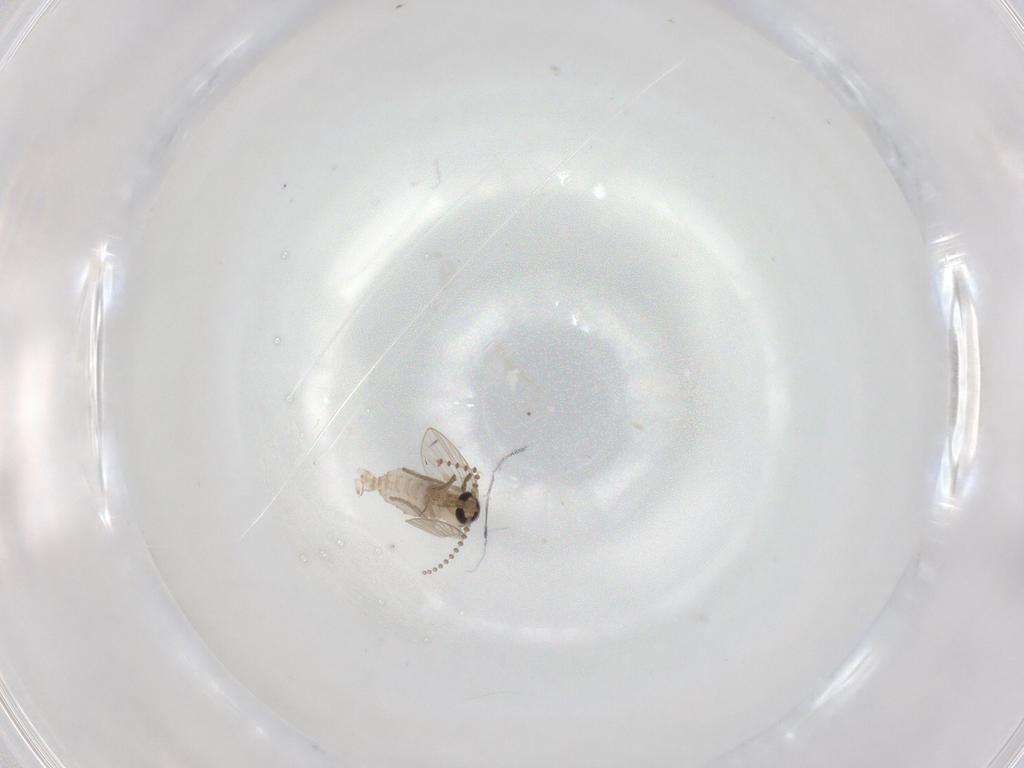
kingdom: Animalia
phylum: Arthropoda
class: Insecta
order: Diptera
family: Psychodidae
